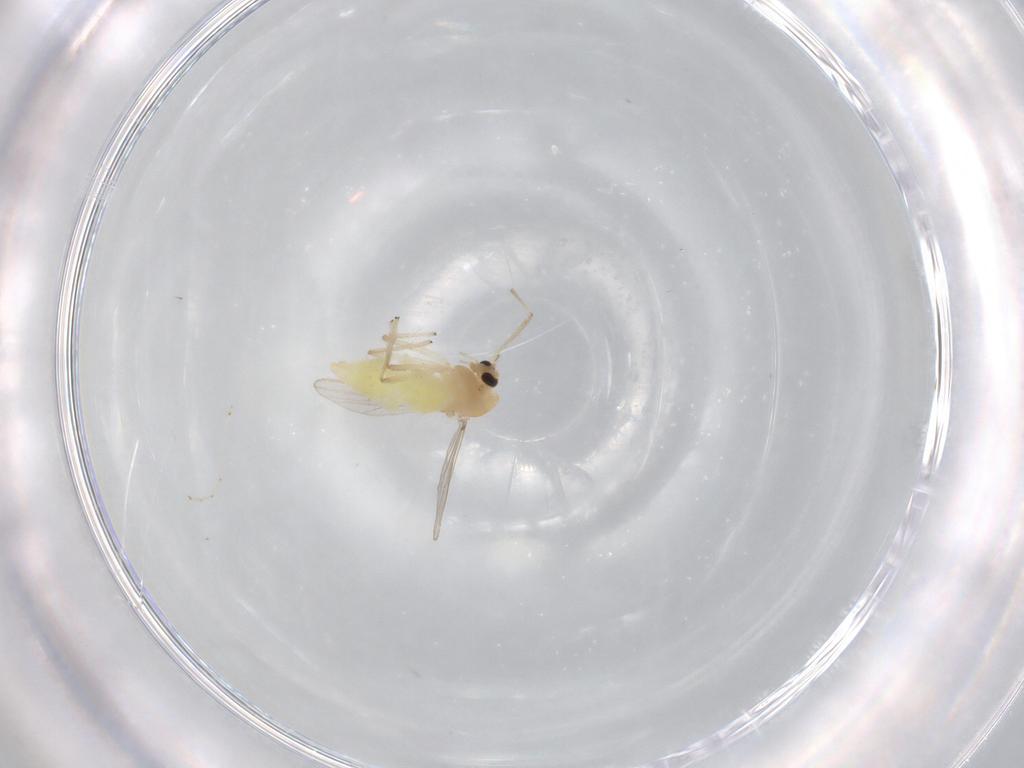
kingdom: Animalia
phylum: Arthropoda
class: Insecta
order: Diptera
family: Chironomidae
